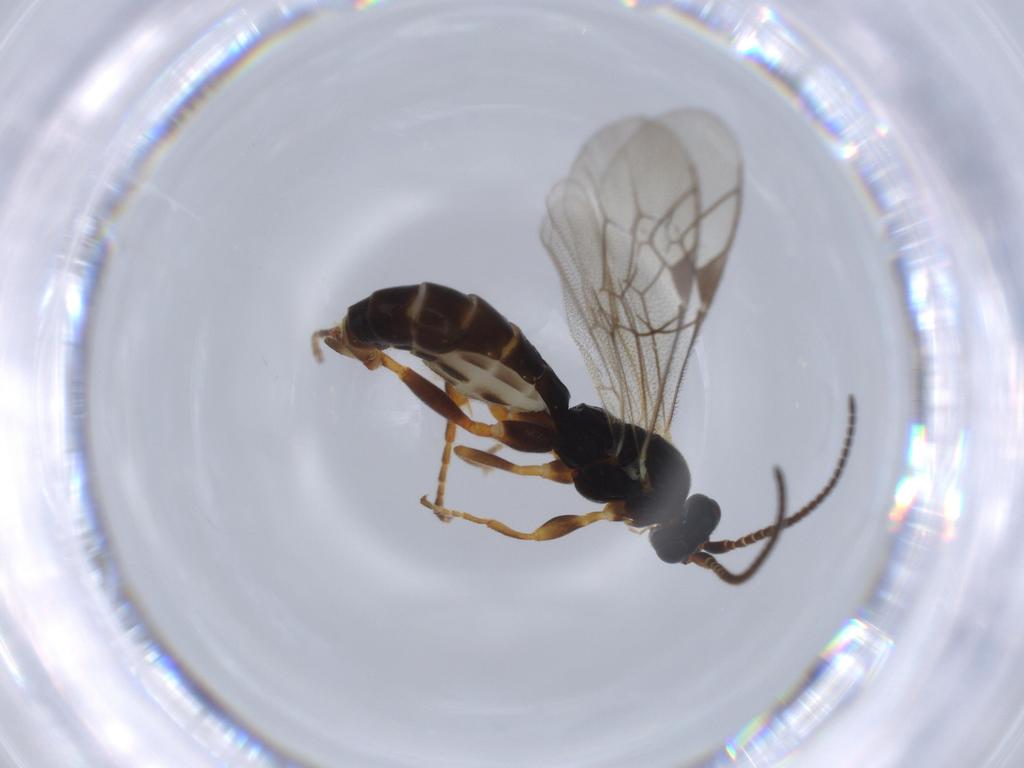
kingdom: Animalia
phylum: Arthropoda
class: Insecta
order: Hymenoptera
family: Ichneumonidae
